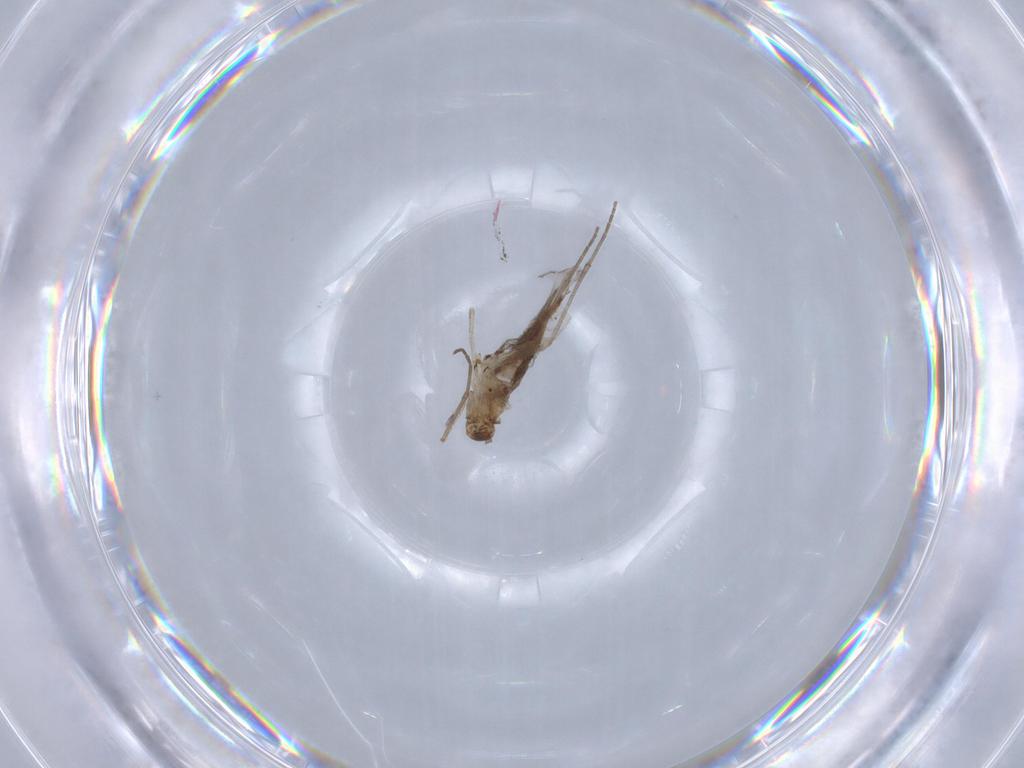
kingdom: Animalia
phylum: Arthropoda
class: Insecta
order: Diptera
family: Sciaridae
